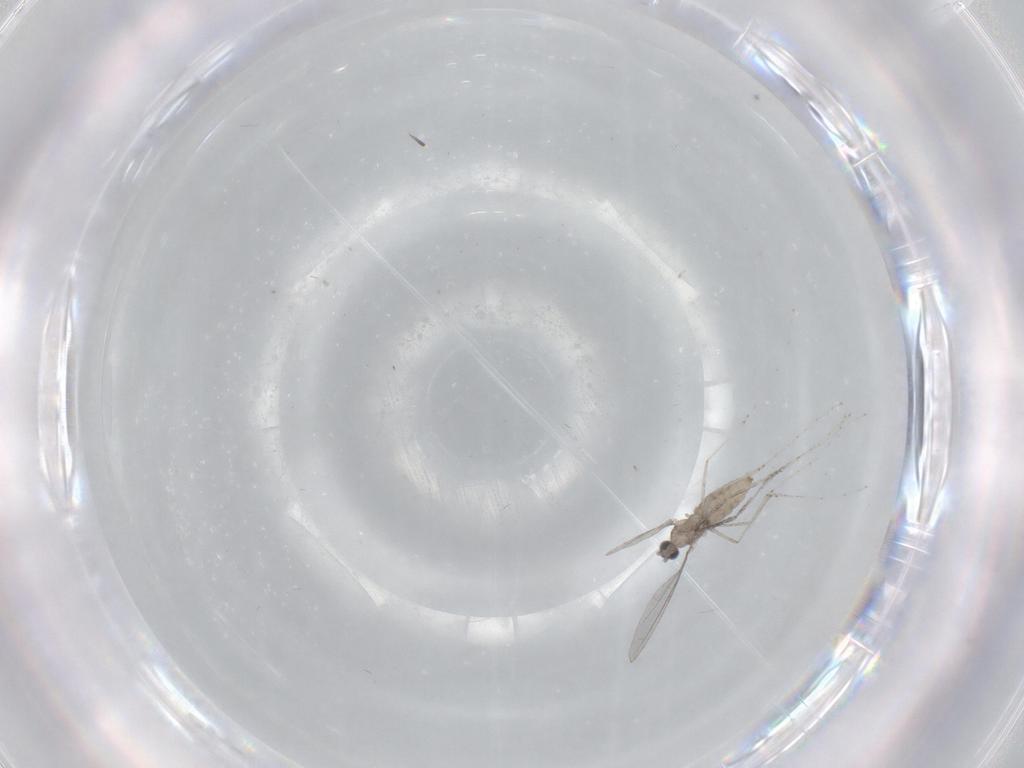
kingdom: Animalia
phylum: Arthropoda
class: Insecta
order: Diptera
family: Cecidomyiidae
